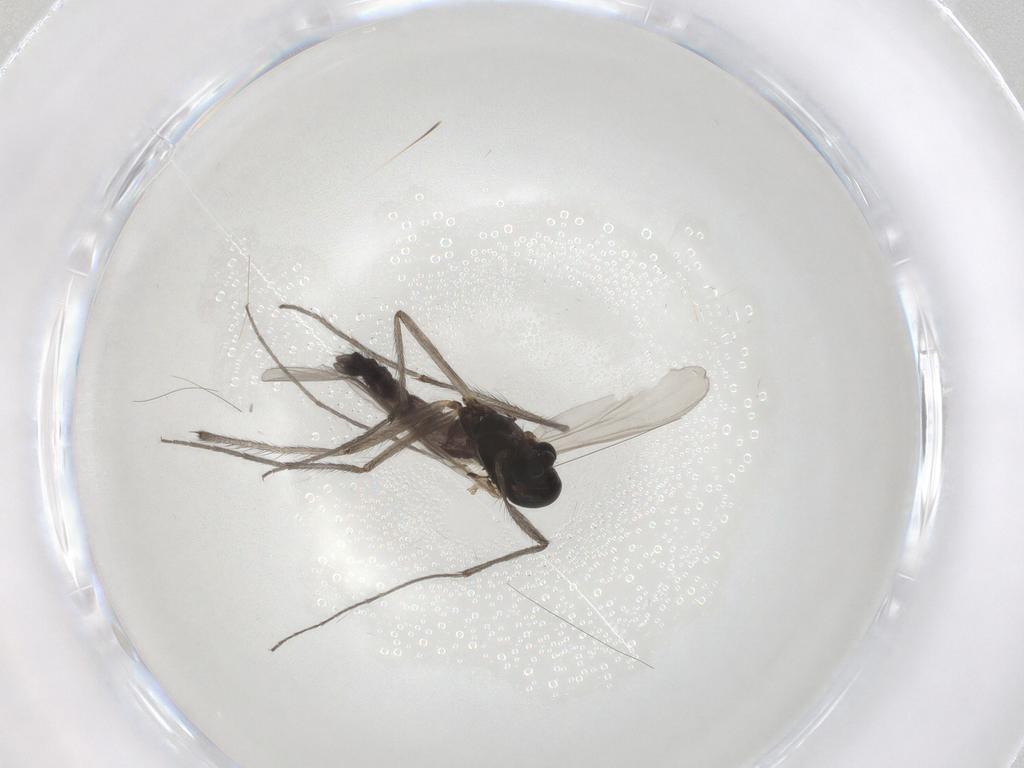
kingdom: Animalia
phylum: Arthropoda
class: Insecta
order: Diptera
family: Chironomidae
